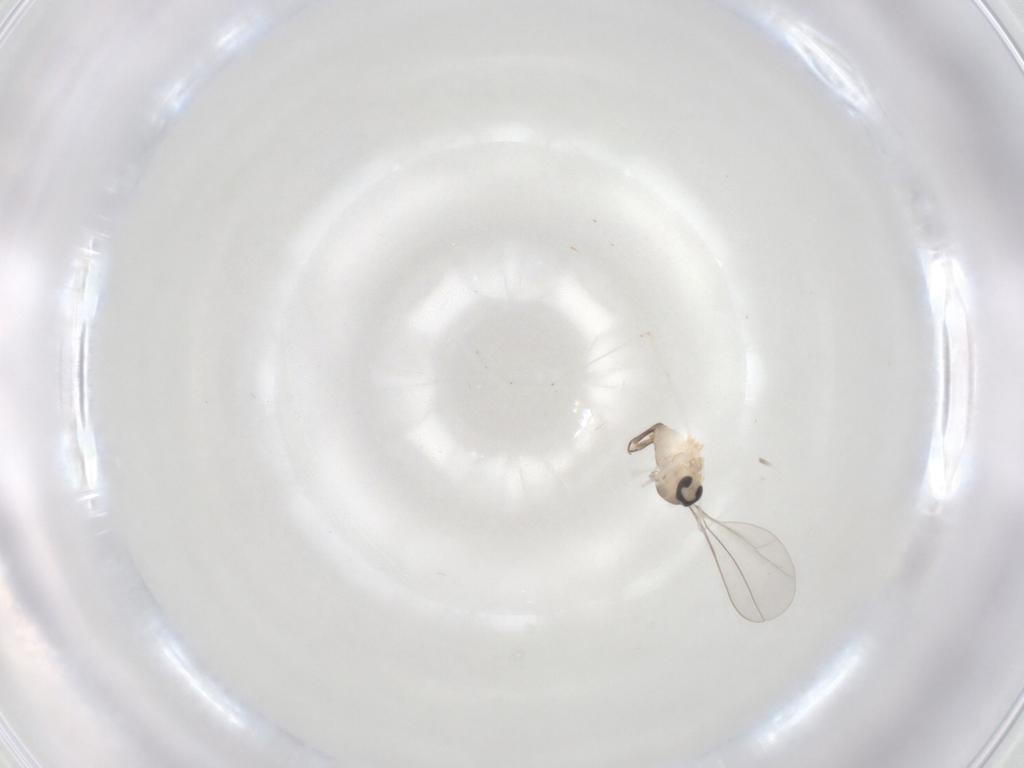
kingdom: Animalia
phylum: Arthropoda
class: Insecta
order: Diptera
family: Cecidomyiidae
